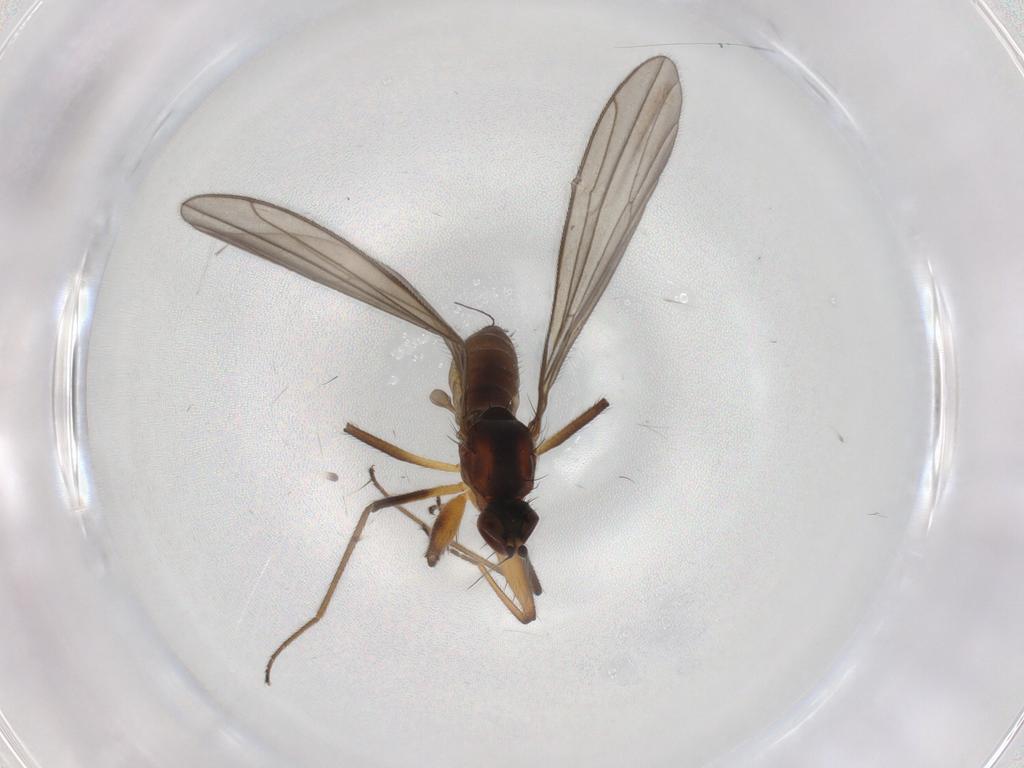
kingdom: Animalia
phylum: Arthropoda
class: Insecta
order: Diptera
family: Empididae
